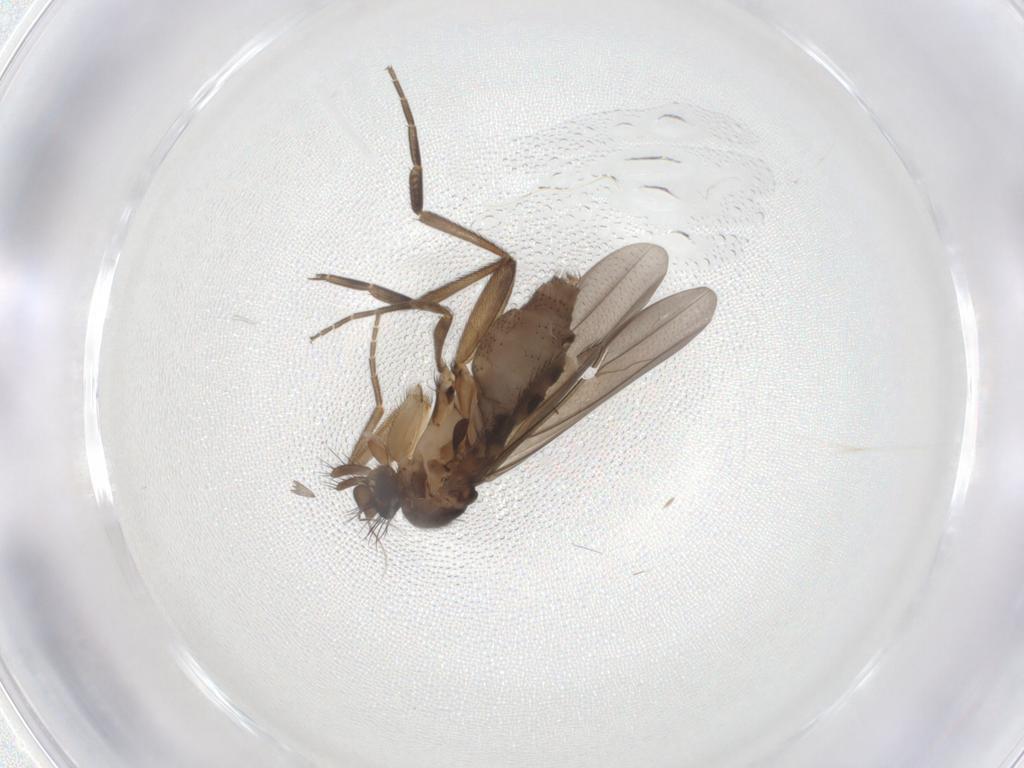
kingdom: Animalia
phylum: Arthropoda
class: Insecta
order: Diptera
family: Phoridae
